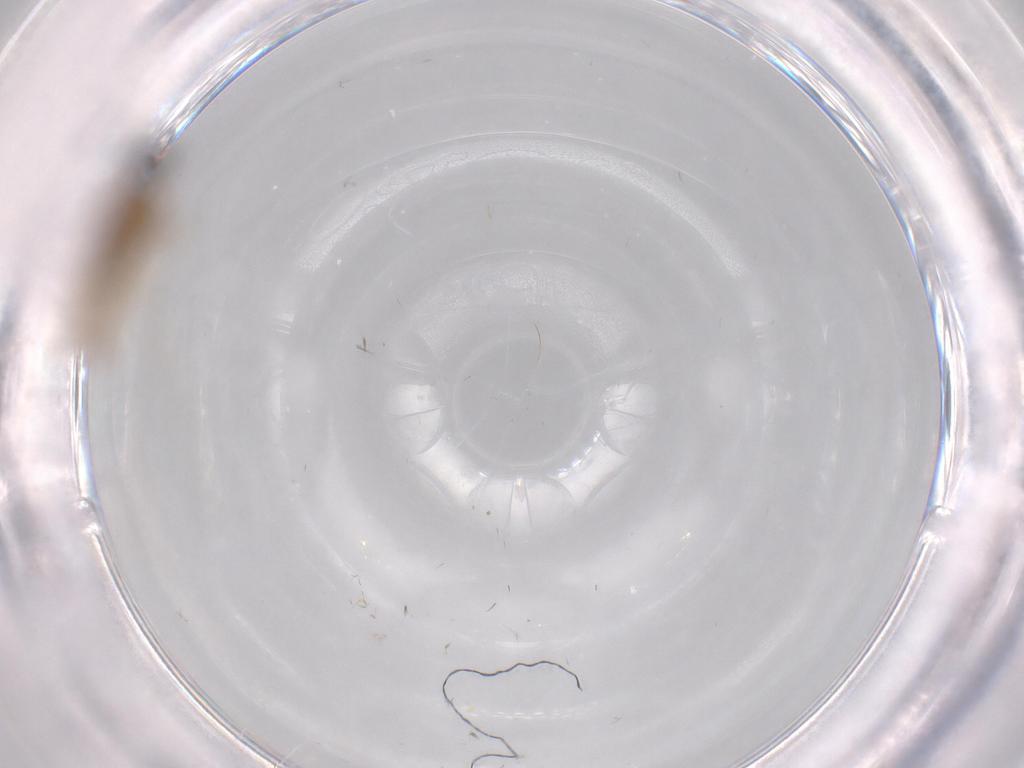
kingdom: Animalia
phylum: Arthropoda
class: Insecta
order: Diptera
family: Cecidomyiidae
